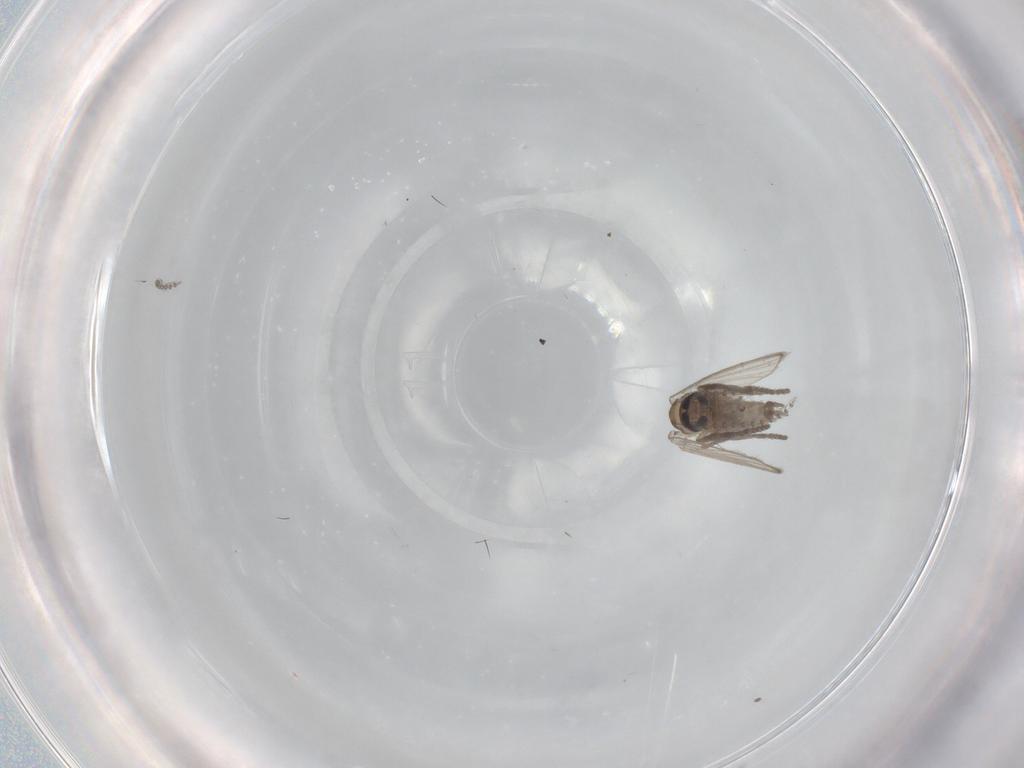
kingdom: Animalia
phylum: Arthropoda
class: Insecta
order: Diptera
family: Psychodidae
